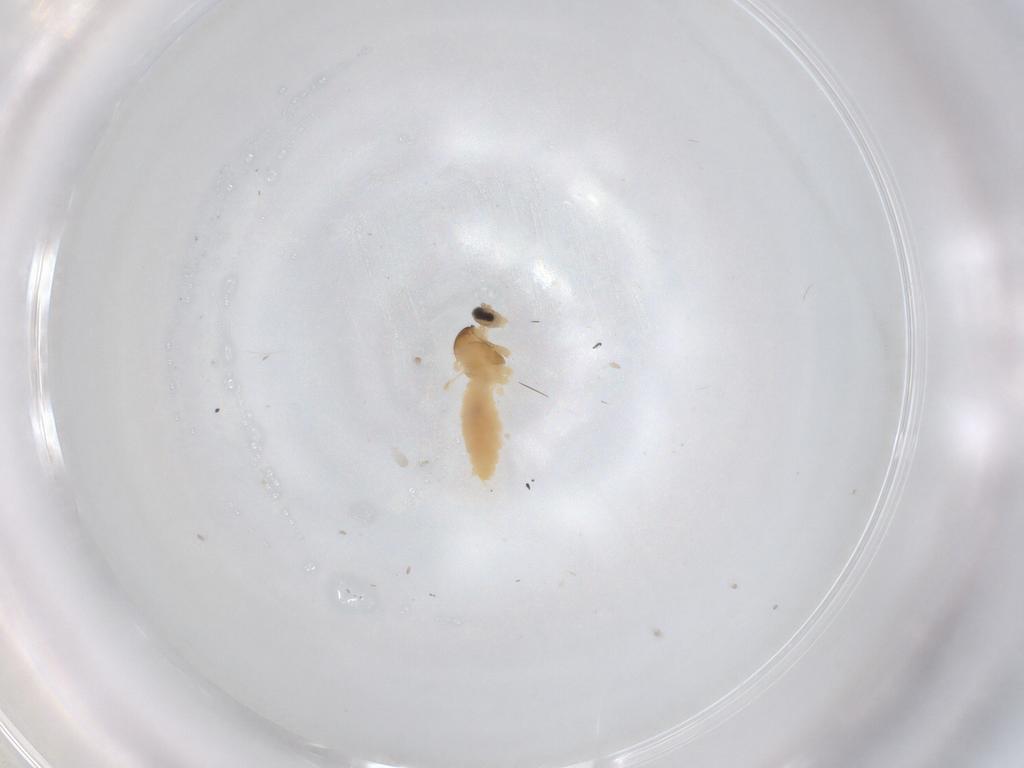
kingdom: Animalia
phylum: Arthropoda
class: Insecta
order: Diptera
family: Cecidomyiidae
